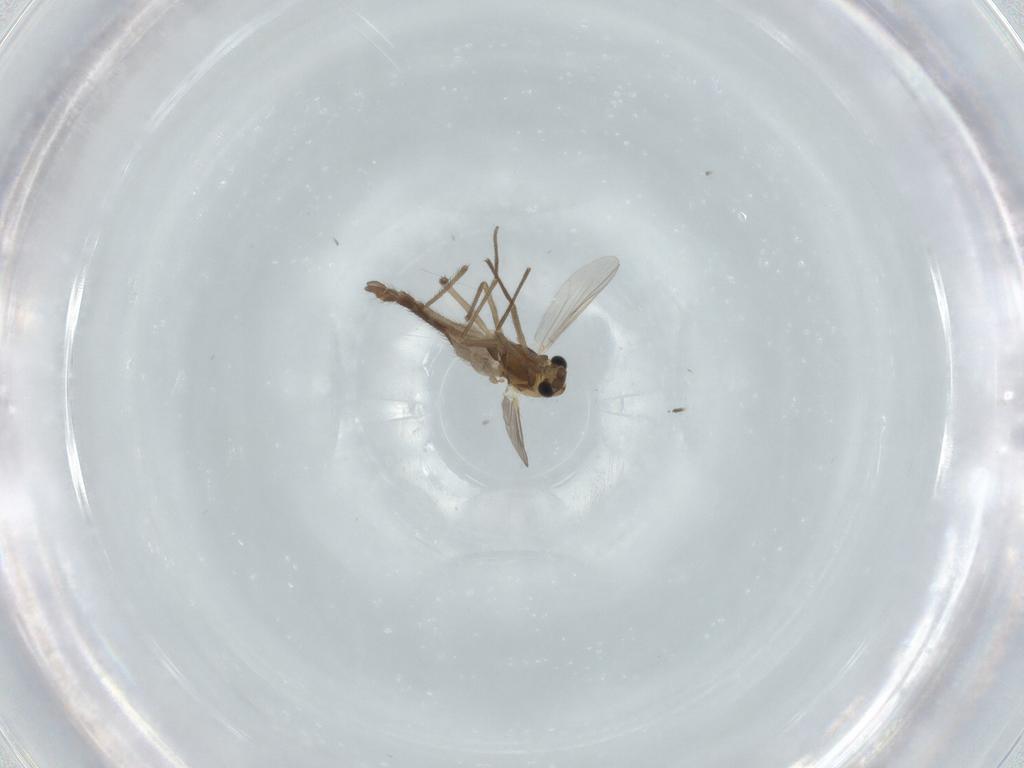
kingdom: Animalia
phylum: Arthropoda
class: Insecta
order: Diptera
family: Chironomidae
